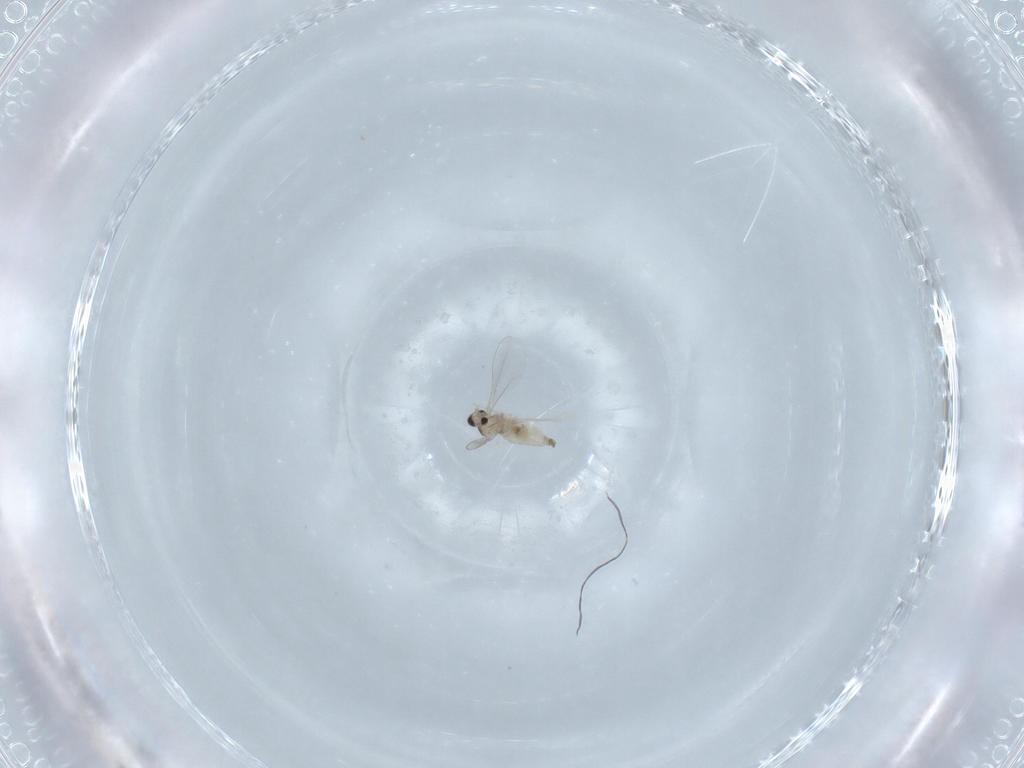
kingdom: Animalia
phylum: Arthropoda
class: Insecta
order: Diptera
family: Cecidomyiidae
